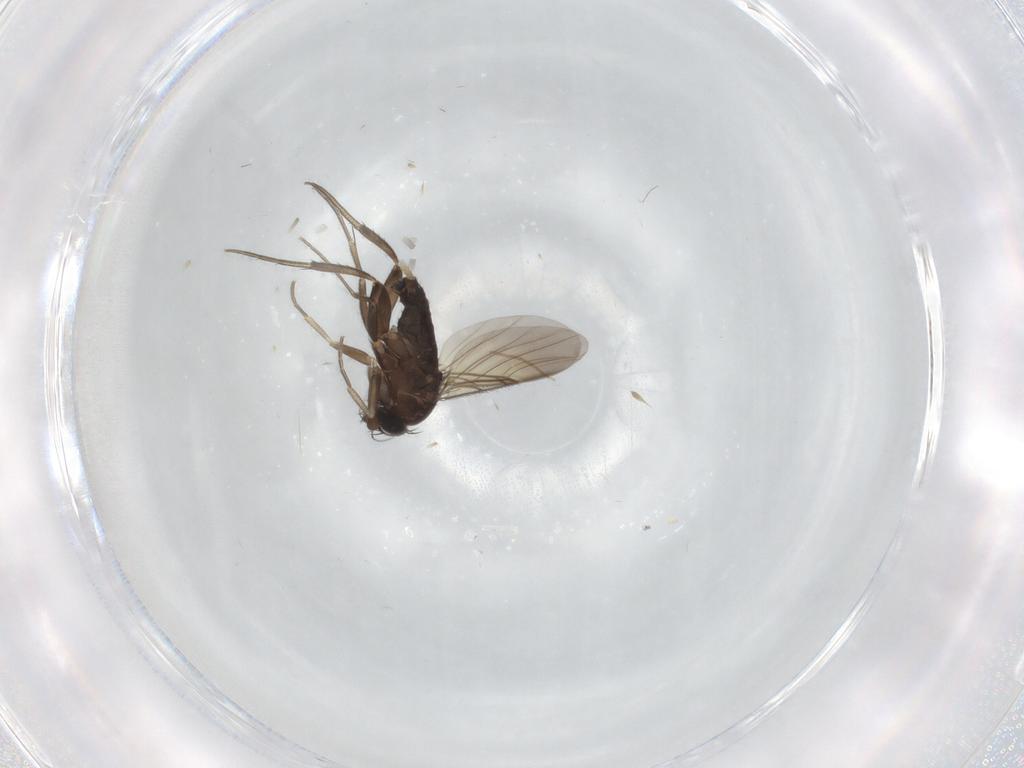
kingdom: Animalia
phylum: Arthropoda
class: Insecta
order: Diptera
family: Phoridae
